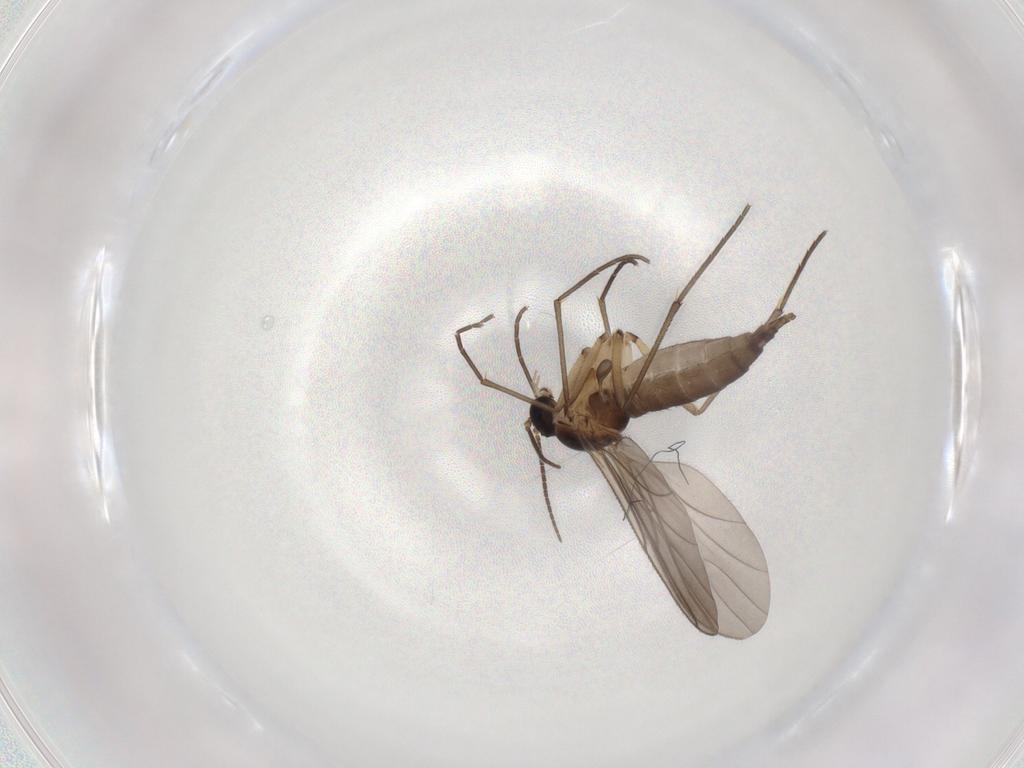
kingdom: Animalia
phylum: Arthropoda
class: Insecta
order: Diptera
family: Sciaridae
